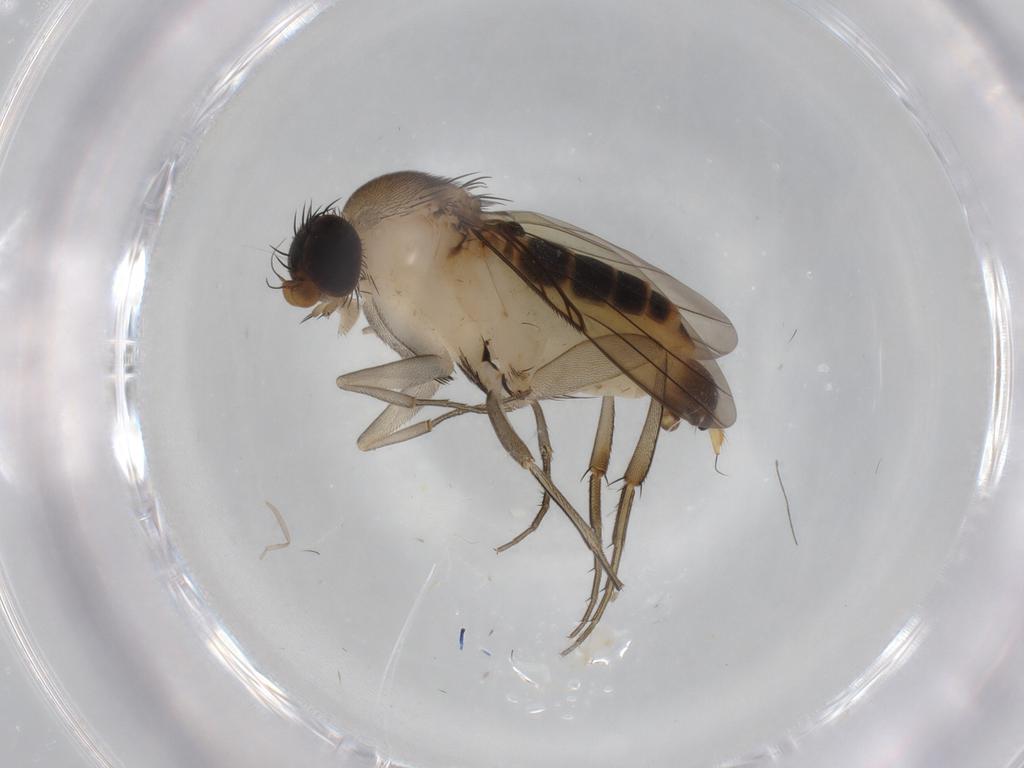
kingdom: Animalia
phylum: Arthropoda
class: Insecta
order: Diptera
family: Phoridae
